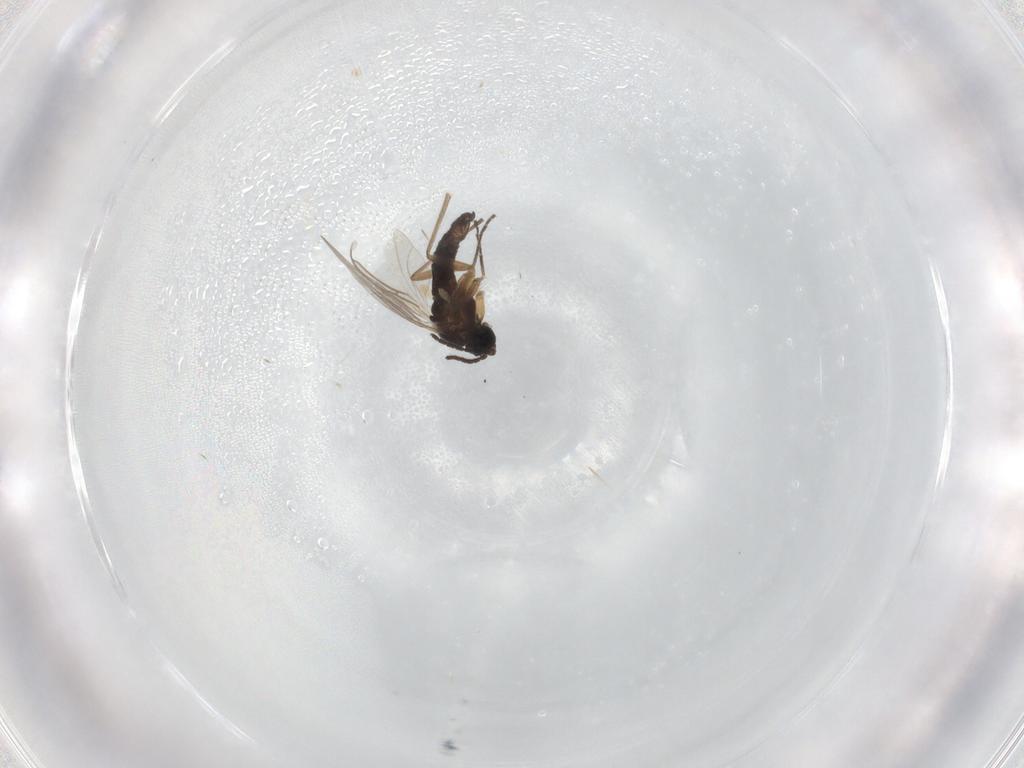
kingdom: Animalia
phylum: Arthropoda
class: Insecta
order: Diptera
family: Sciaridae
